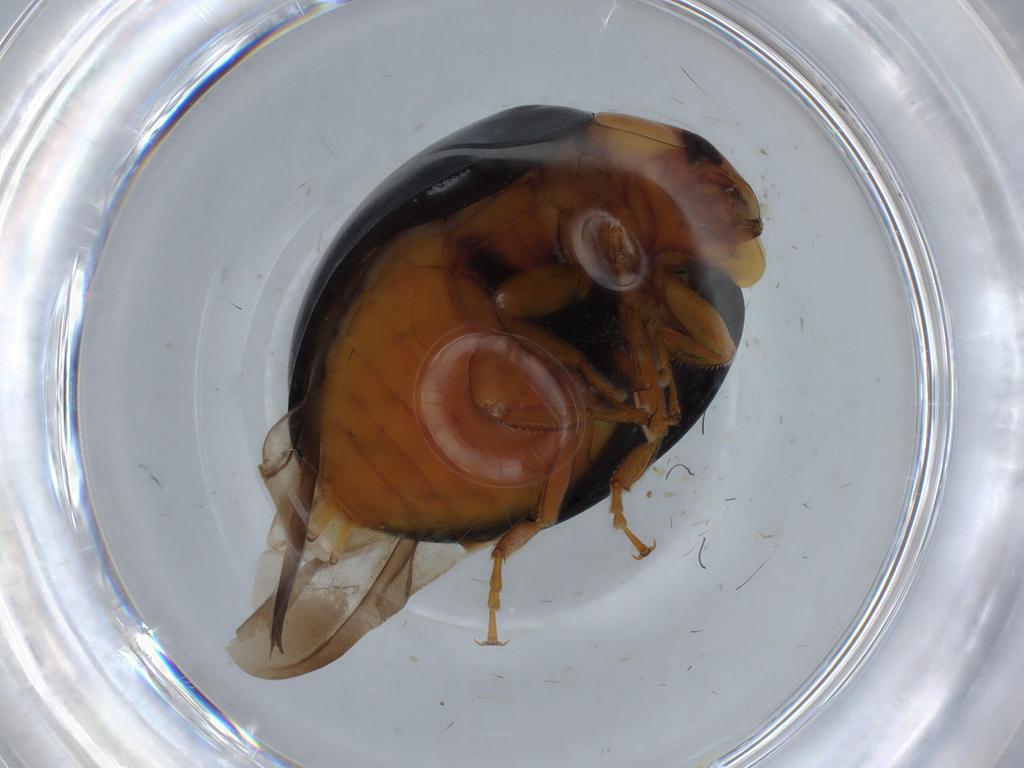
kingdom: Animalia
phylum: Arthropoda
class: Insecta
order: Coleoptera
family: Coccinellidae
